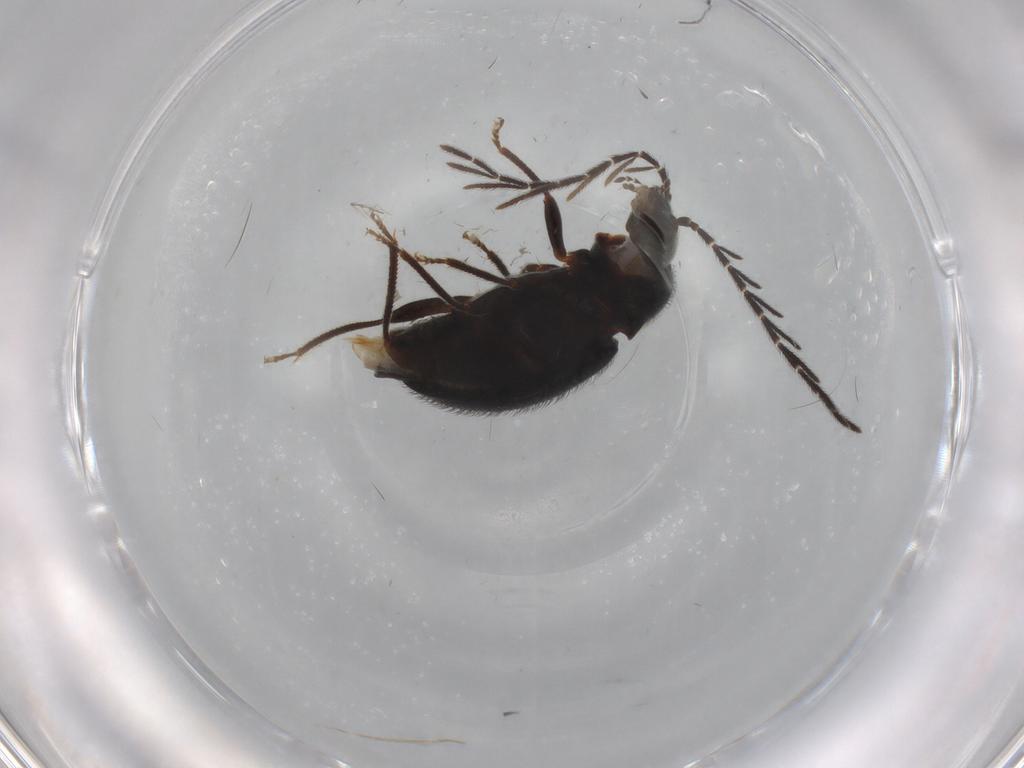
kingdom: Animalia
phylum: Arthropoda
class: Insecta
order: Coleoptera
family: Ptilodactylidae
